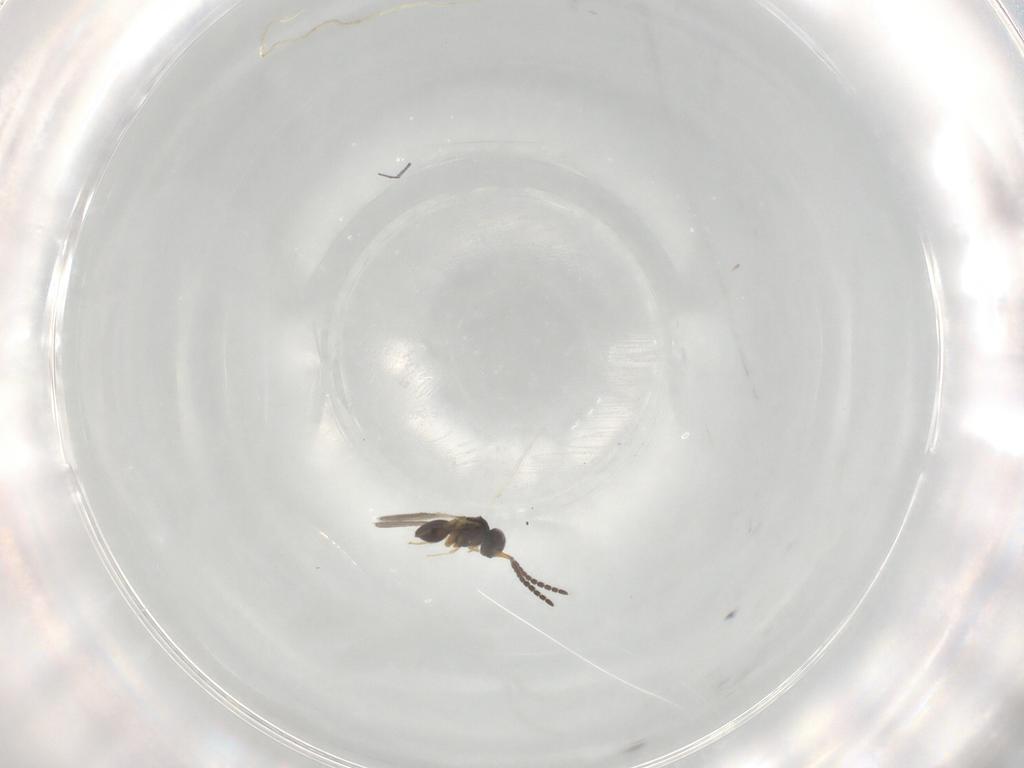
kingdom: Animalia
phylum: Arthropoda
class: Insecta
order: Hymenoptera
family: Ceraphronidae
